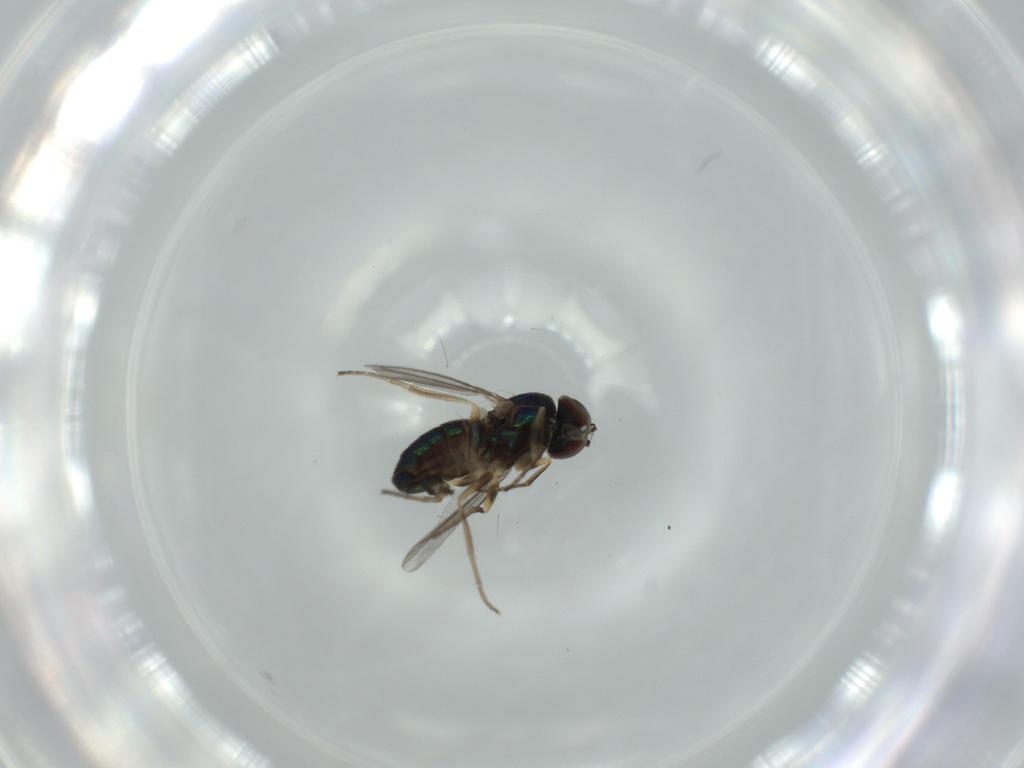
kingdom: Animalia
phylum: Arthropoda
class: Insecta
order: Diptera
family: Dolichopodidae
